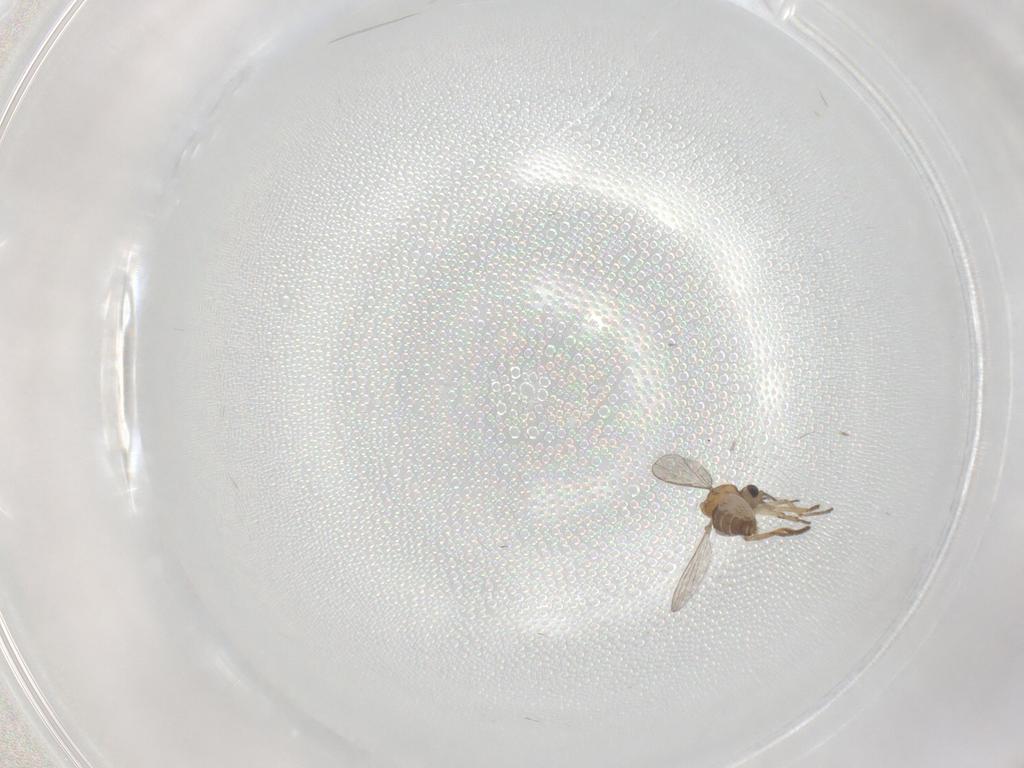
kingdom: Animalia
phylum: Arthropoda
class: Insecta
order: Diptera
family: Ceratopogonidae
